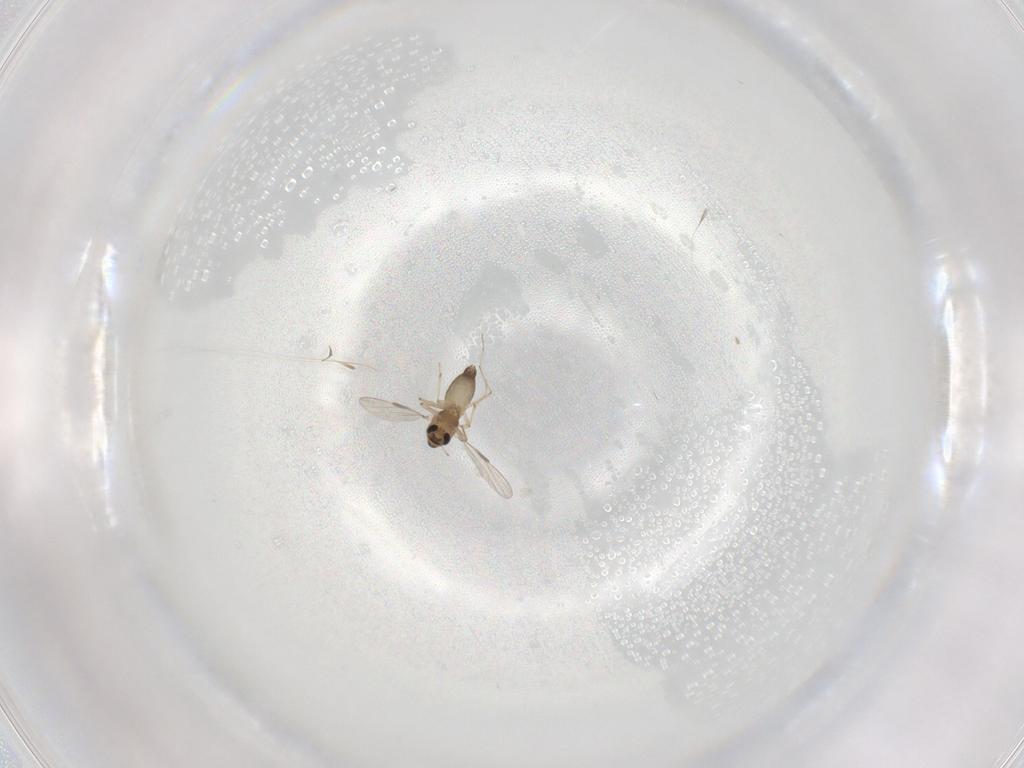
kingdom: Animalia
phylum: Arthropoda
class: Insecta
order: Diptera
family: Chironomidae
